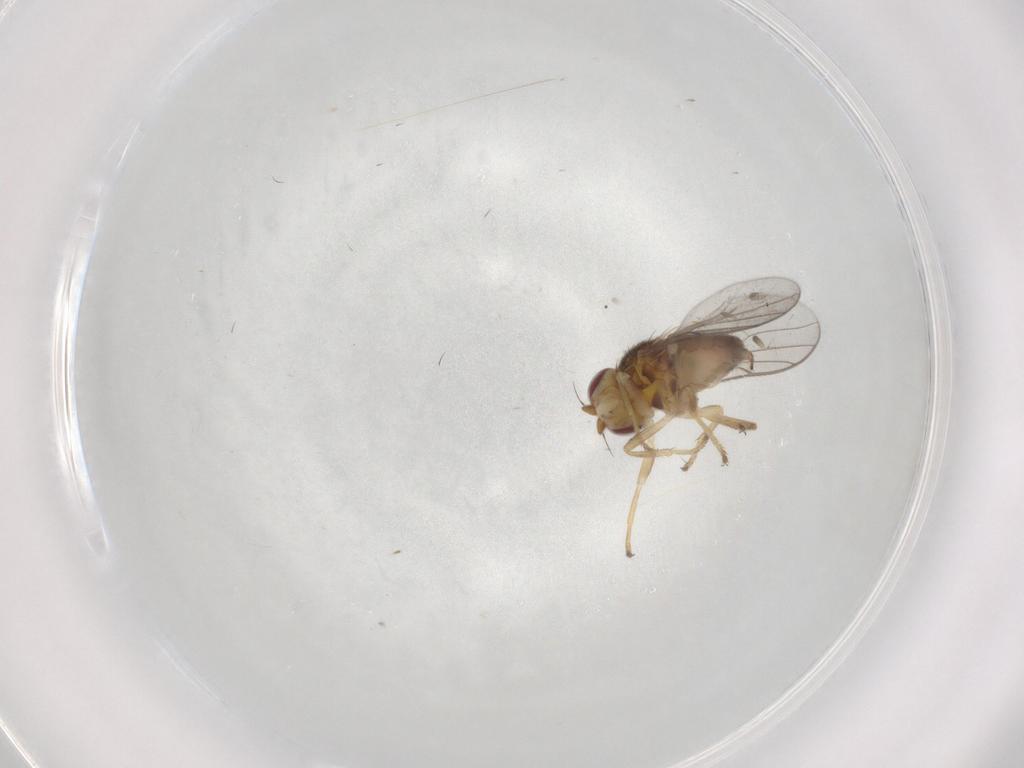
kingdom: Animalia
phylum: Arthropoda
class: Insecta
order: Diptera
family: Chloropidae
